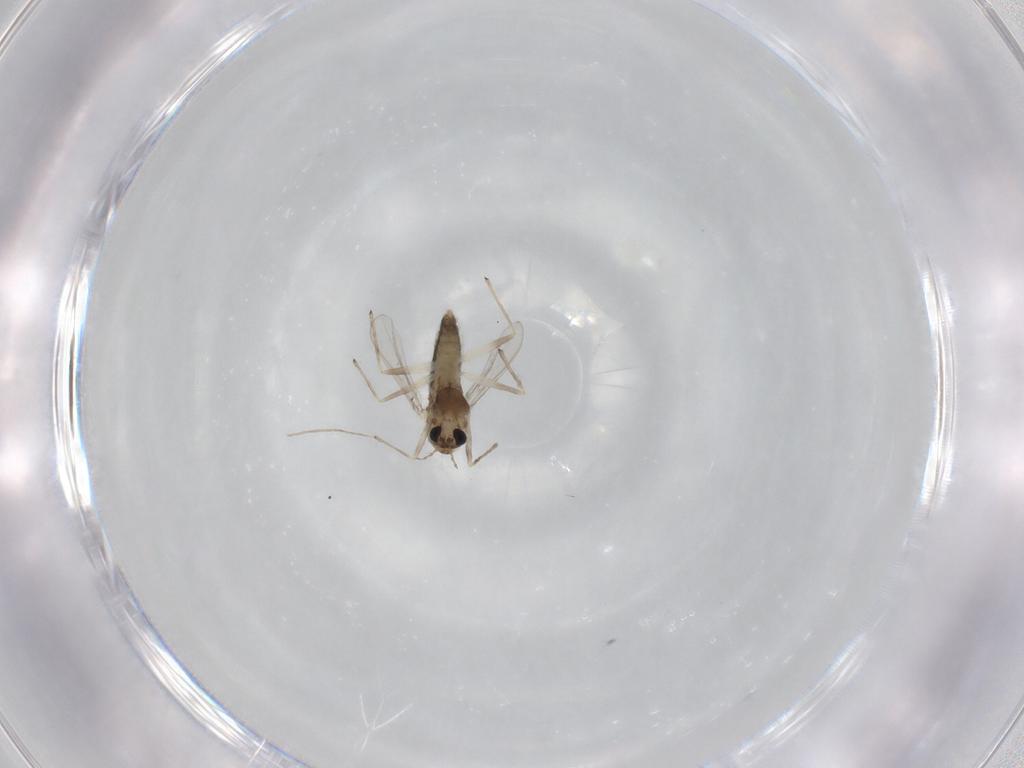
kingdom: Animalia
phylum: Arthropoda
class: Insecta
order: Diptera
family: Chironomidae
